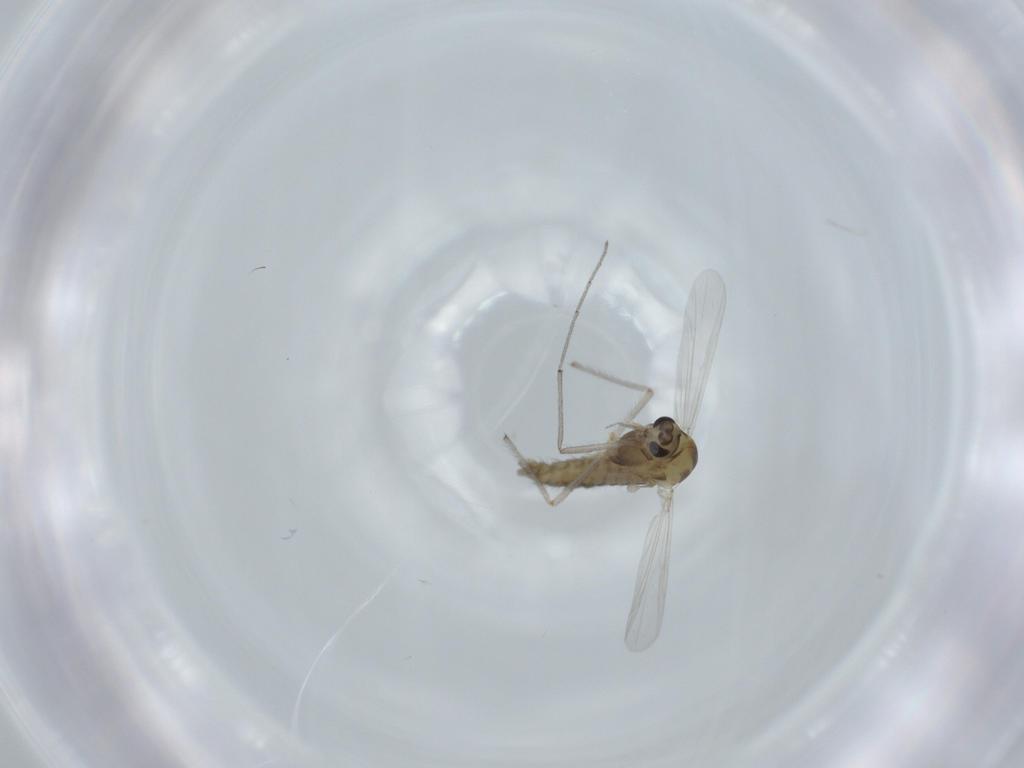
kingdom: Animalia
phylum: Arthropoda
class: Insecta
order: Diptera
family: Chironomidae
